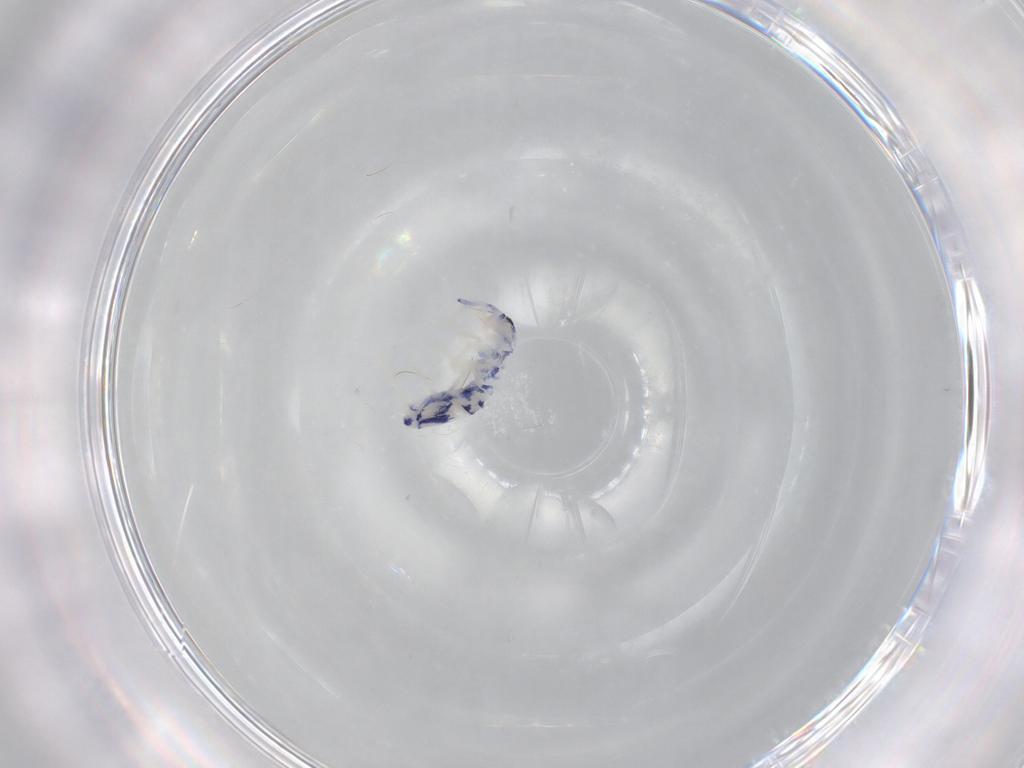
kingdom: Animalia
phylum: Arthropoda
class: Collembola
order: Entomobryomorpha
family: Entomobryidae
